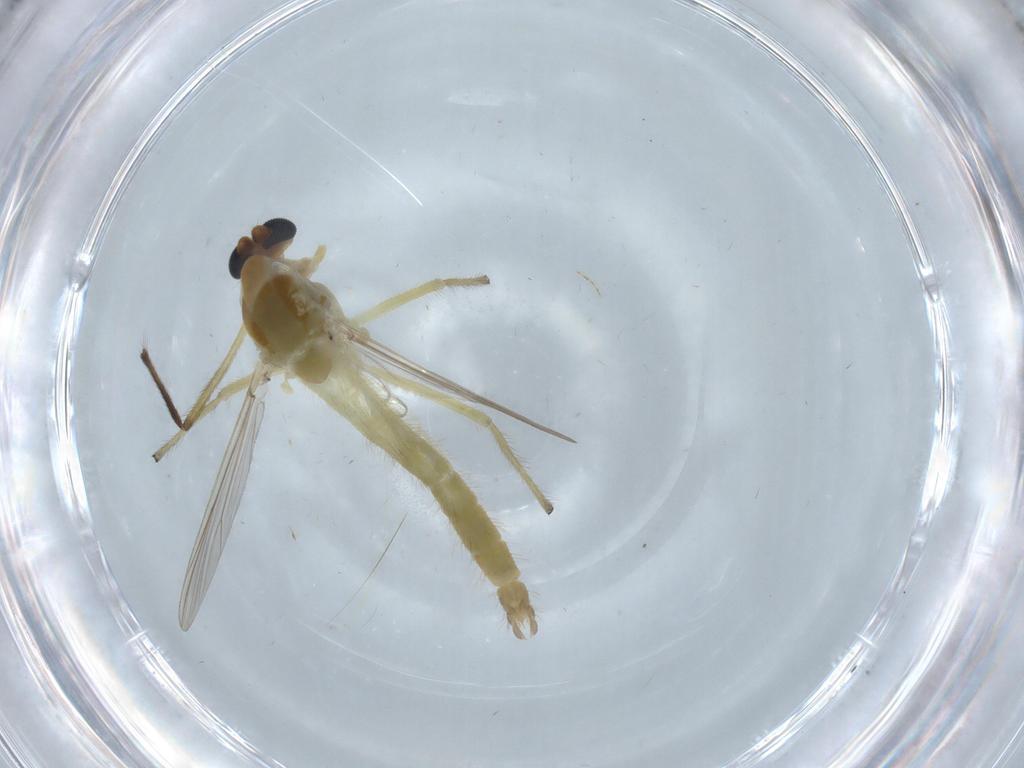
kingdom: Animalia
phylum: Arthropoda
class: Insecta
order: Diptera
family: Chironomidae
